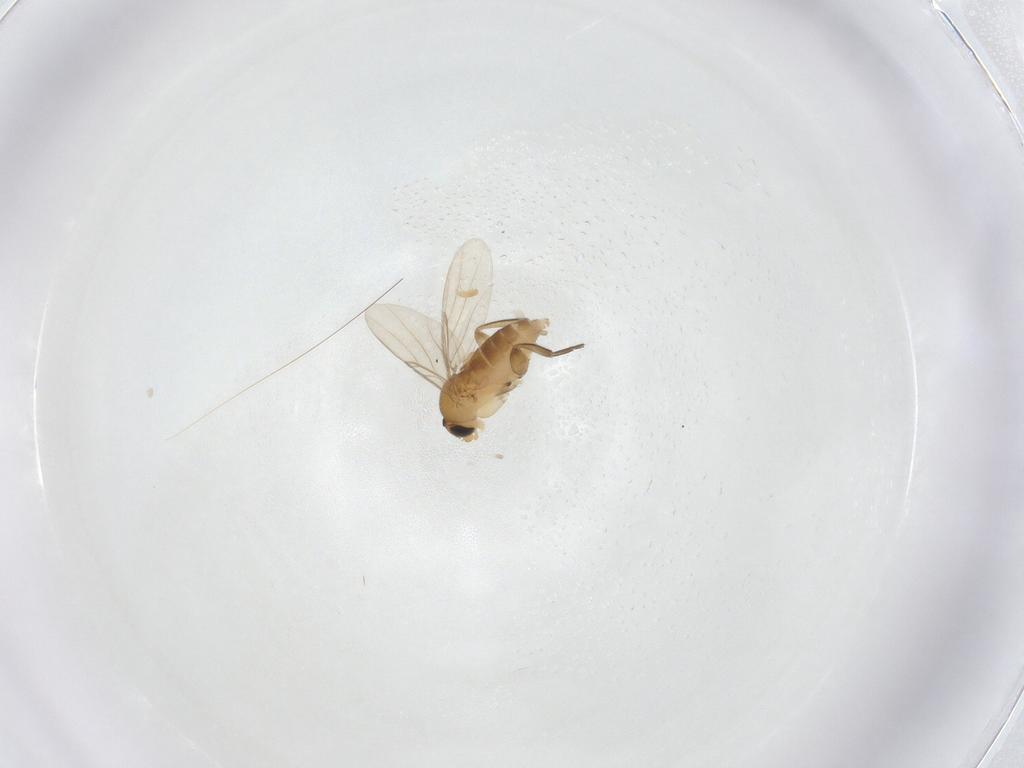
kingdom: Animalia
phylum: Arthropoda
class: Insecta
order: Diptera
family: Phoridae
